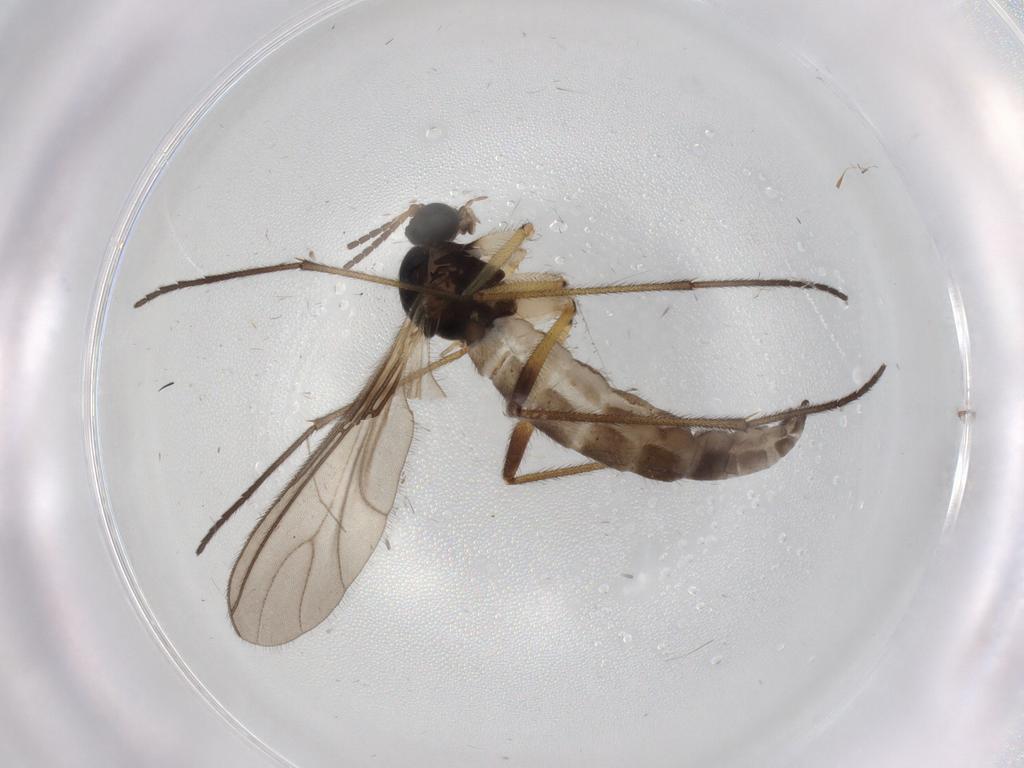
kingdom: Animalia
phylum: Arthropoda
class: Insecta
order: Diptera
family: Sciaridae
